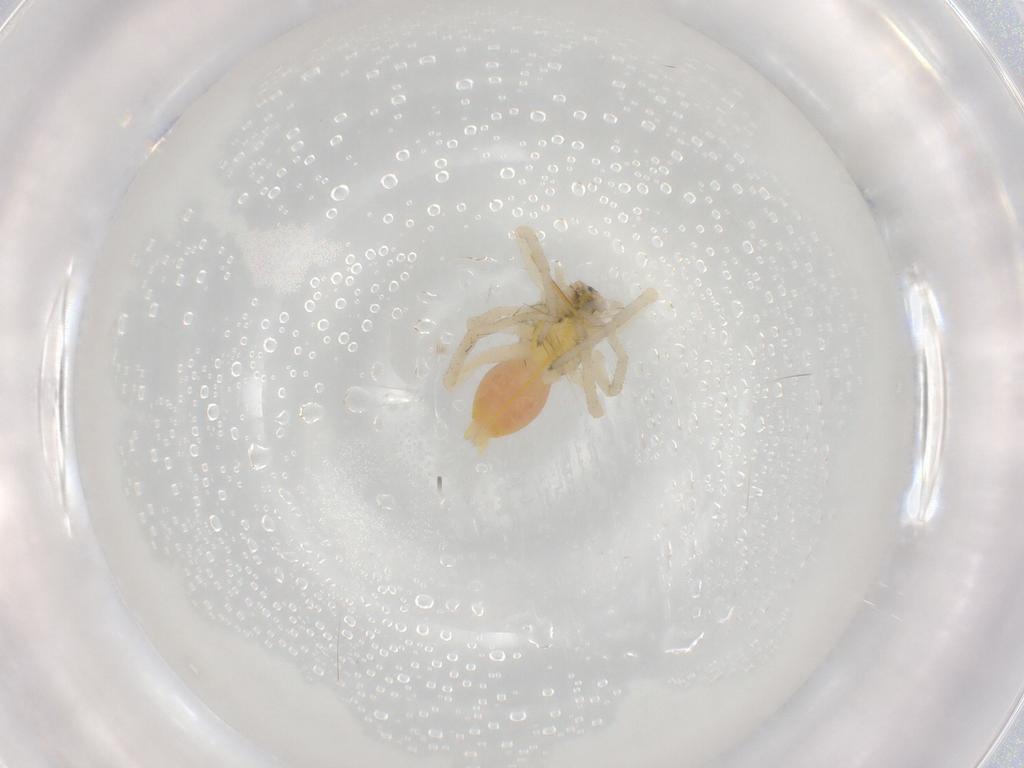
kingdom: Animalia
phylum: Arthropoda
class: Arachnida
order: Araneae
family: Anyphaenidae
